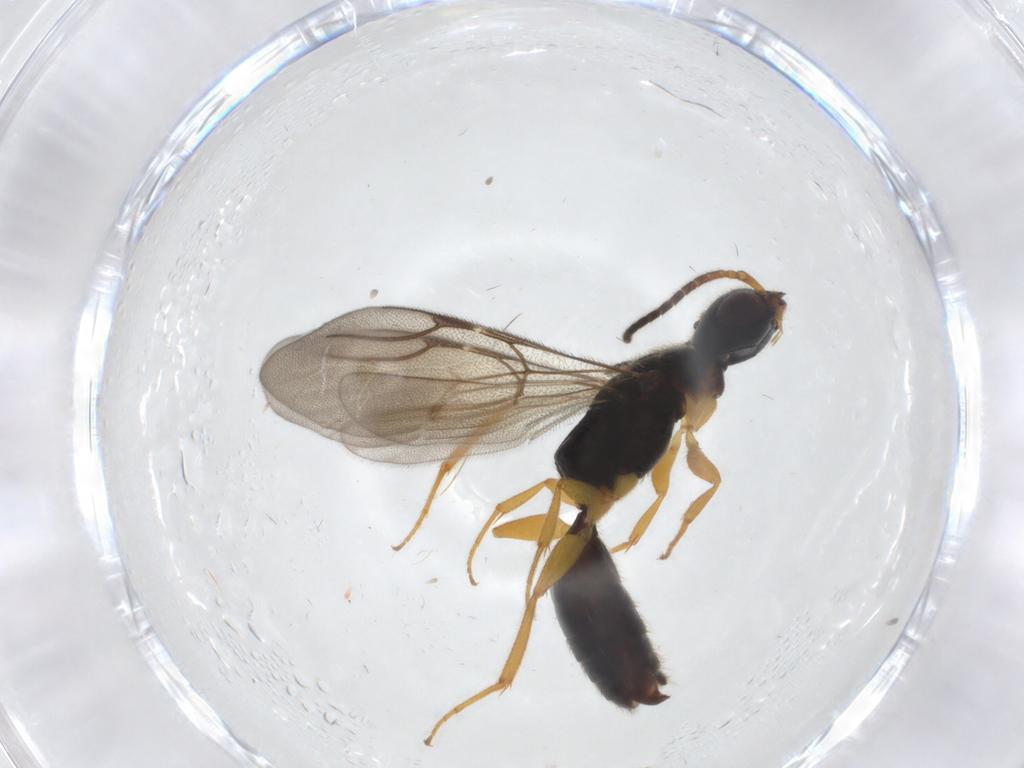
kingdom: Animalia
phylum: Arthropoda
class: Insecta
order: Hymenoptera
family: Bethylidae
